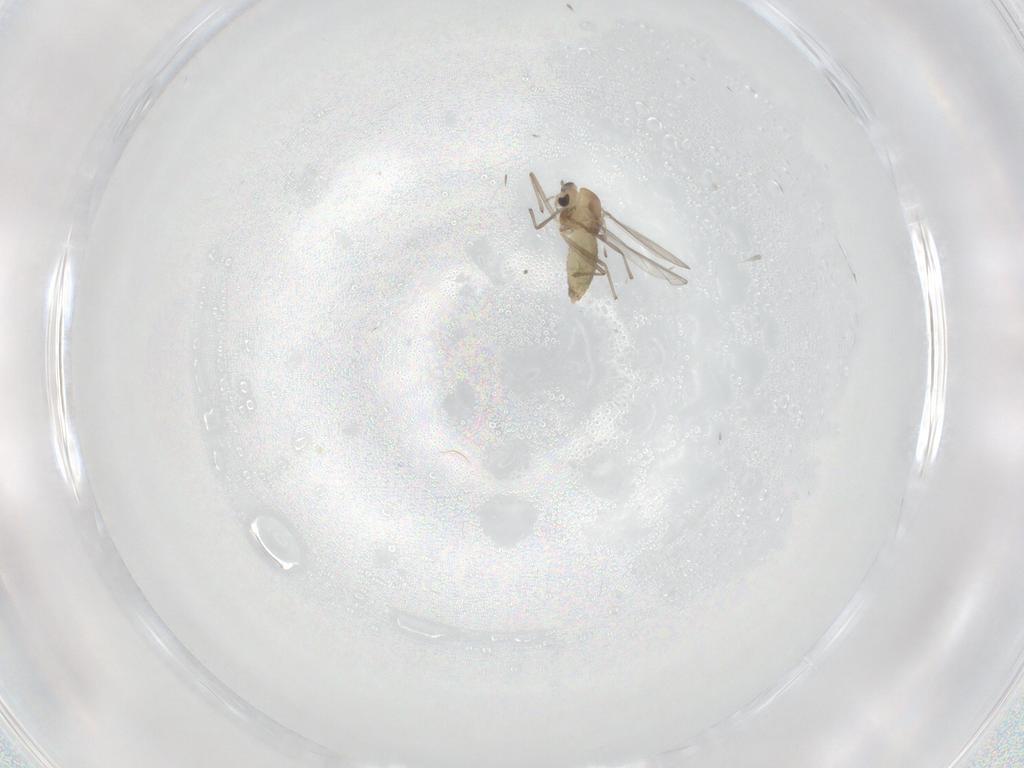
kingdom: Animalia
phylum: Arthropoda
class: Insecta
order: Diptera
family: Chironomidae
